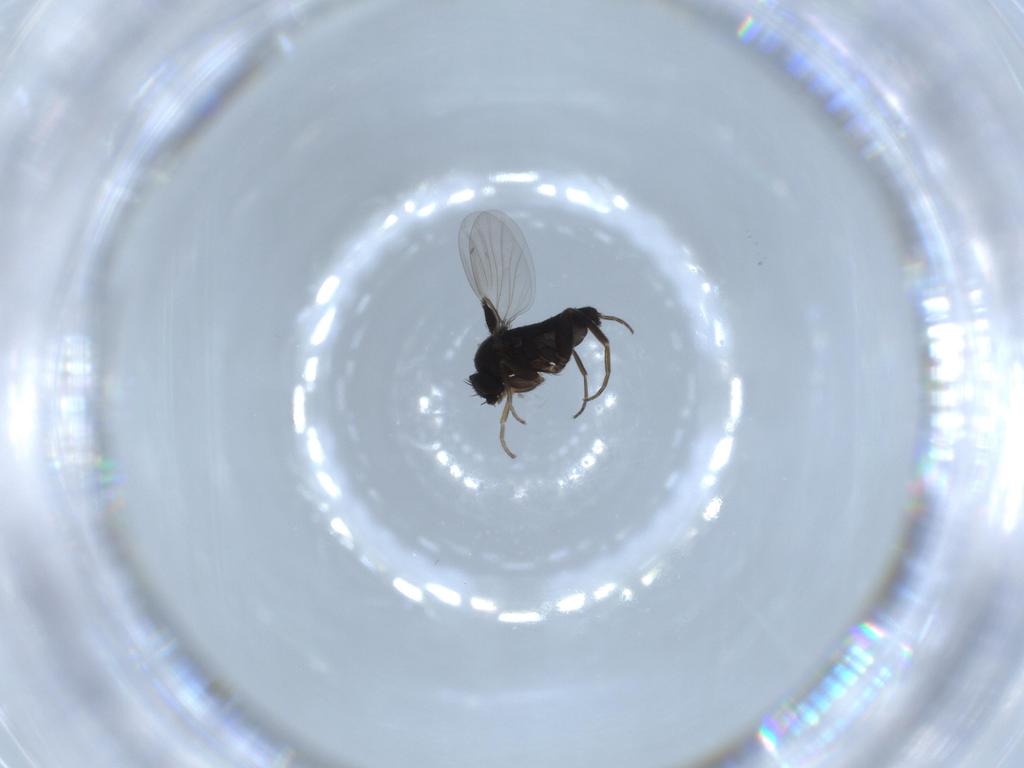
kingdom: Animalia
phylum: Arthropoda
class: Insecta
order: Diptera
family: Phoridae
